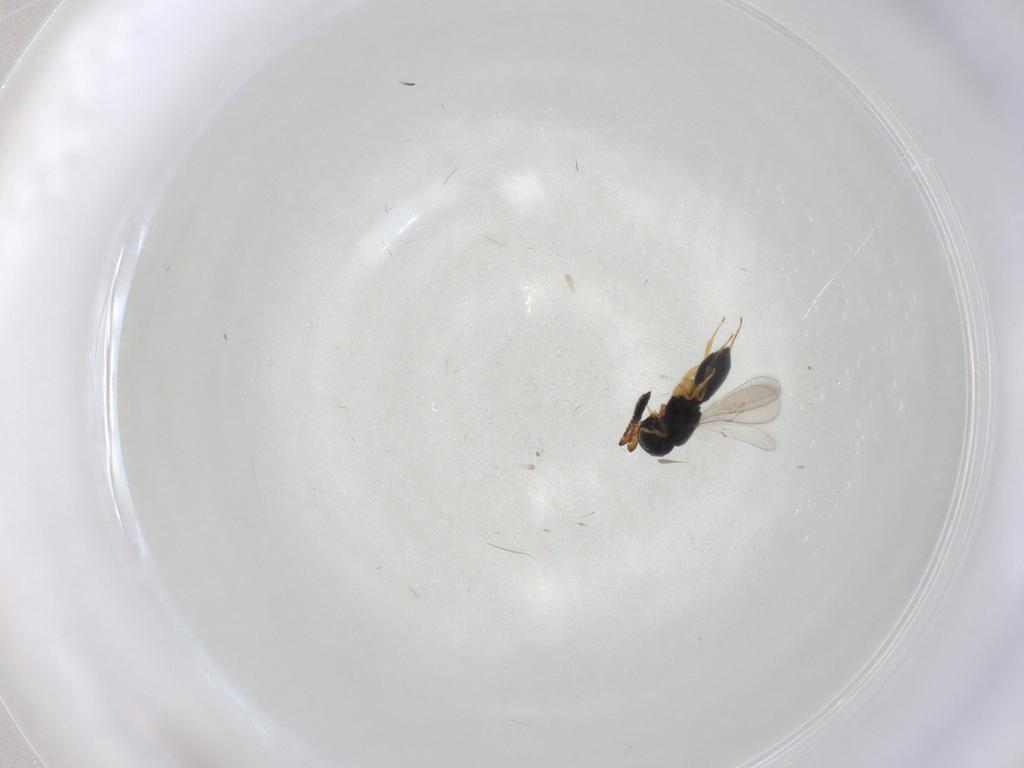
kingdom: Animalia
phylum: Arthropoda
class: Insecta
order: Hymenoptera
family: Scelionidae
